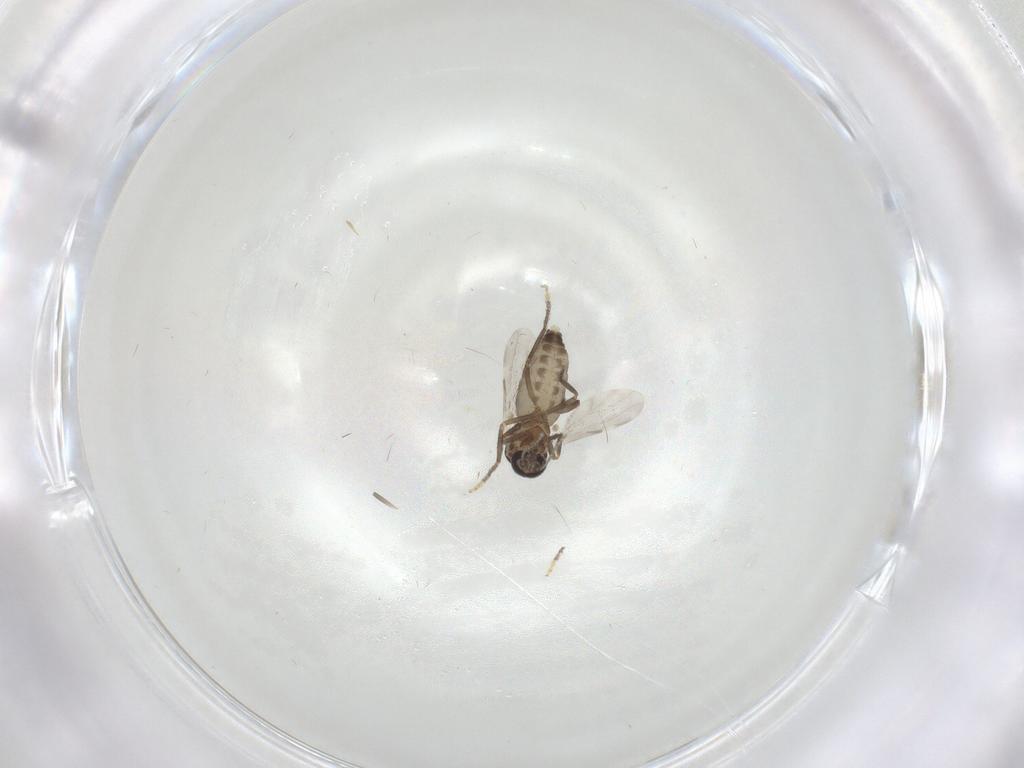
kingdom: Animalia
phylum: Arthropoda
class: Insecta
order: Diptera
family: Ceratopogonidae
